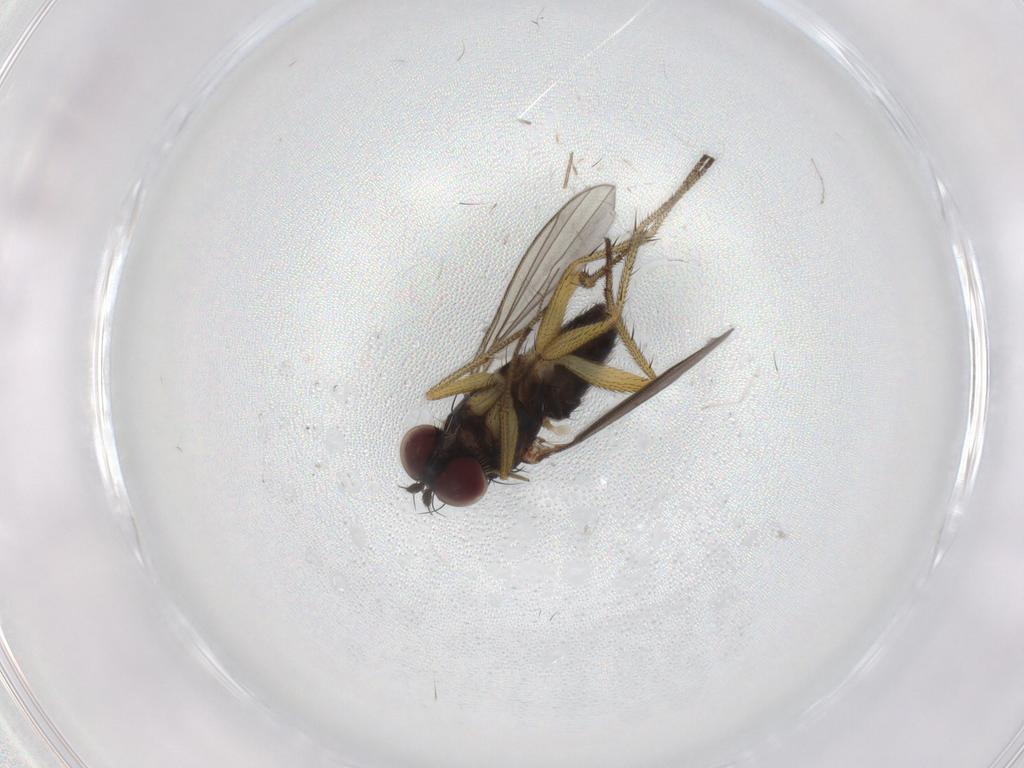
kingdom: Animalia
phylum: Arthropoda
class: Insecta
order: Diptera
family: Chironomidae
